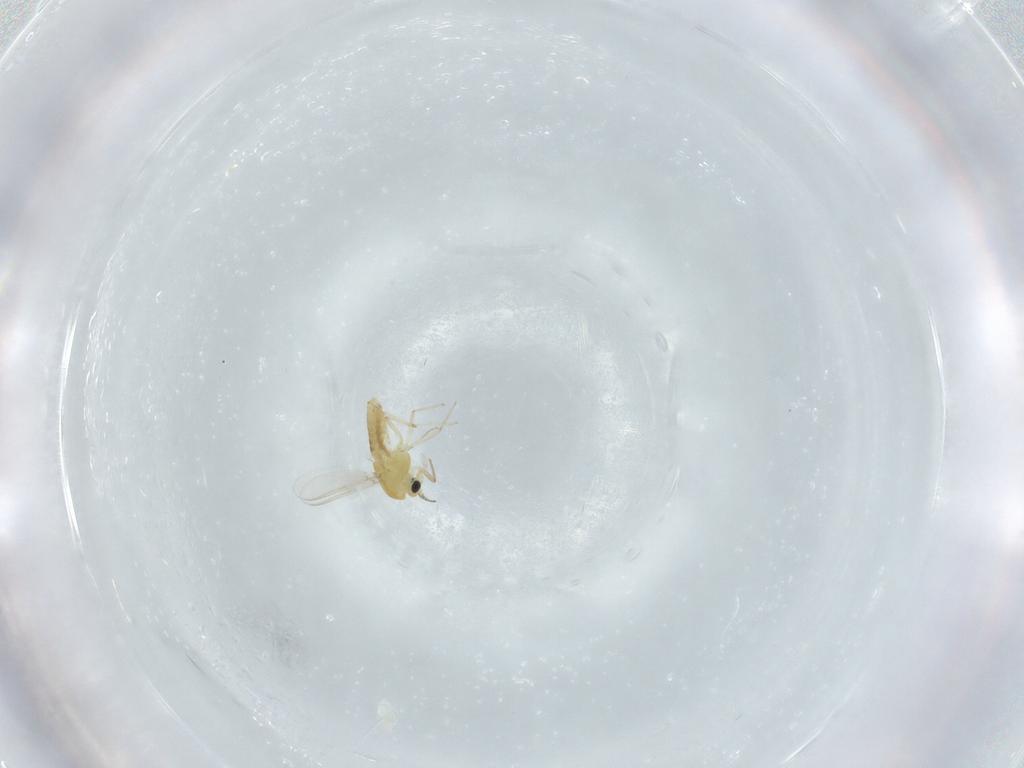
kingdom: Animalia
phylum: Arthropoda
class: Insecta
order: Diptera
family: Chironomidae
